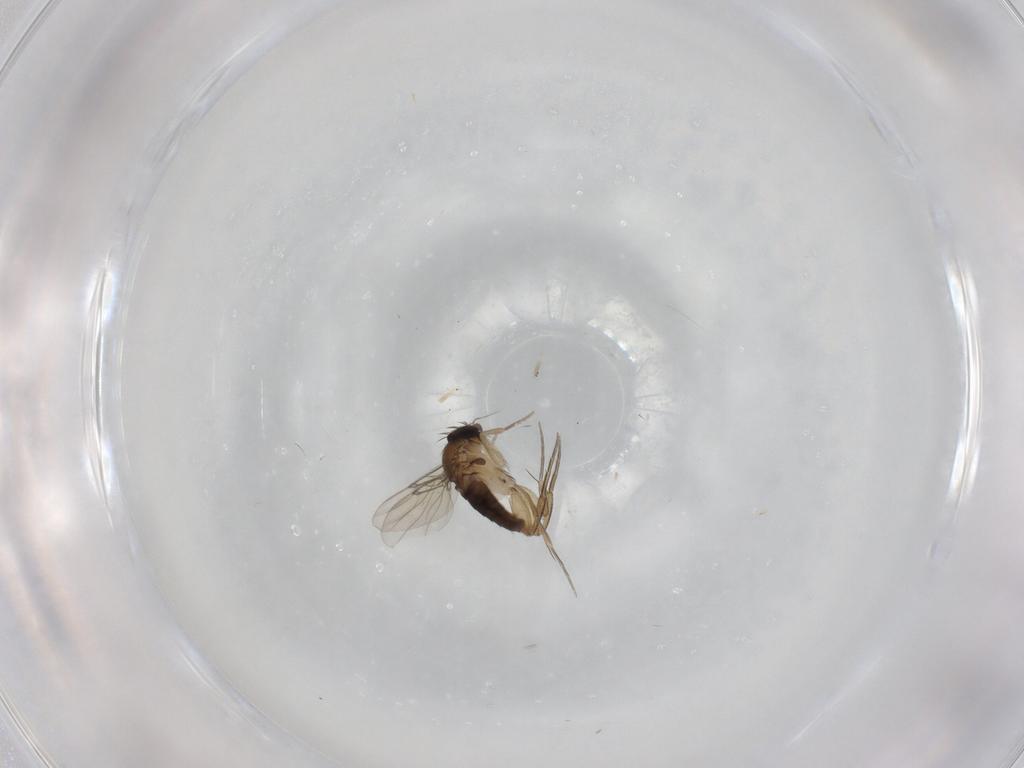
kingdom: Animalia
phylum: Arthropoda
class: Insecta
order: Diptera
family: Phoridae
